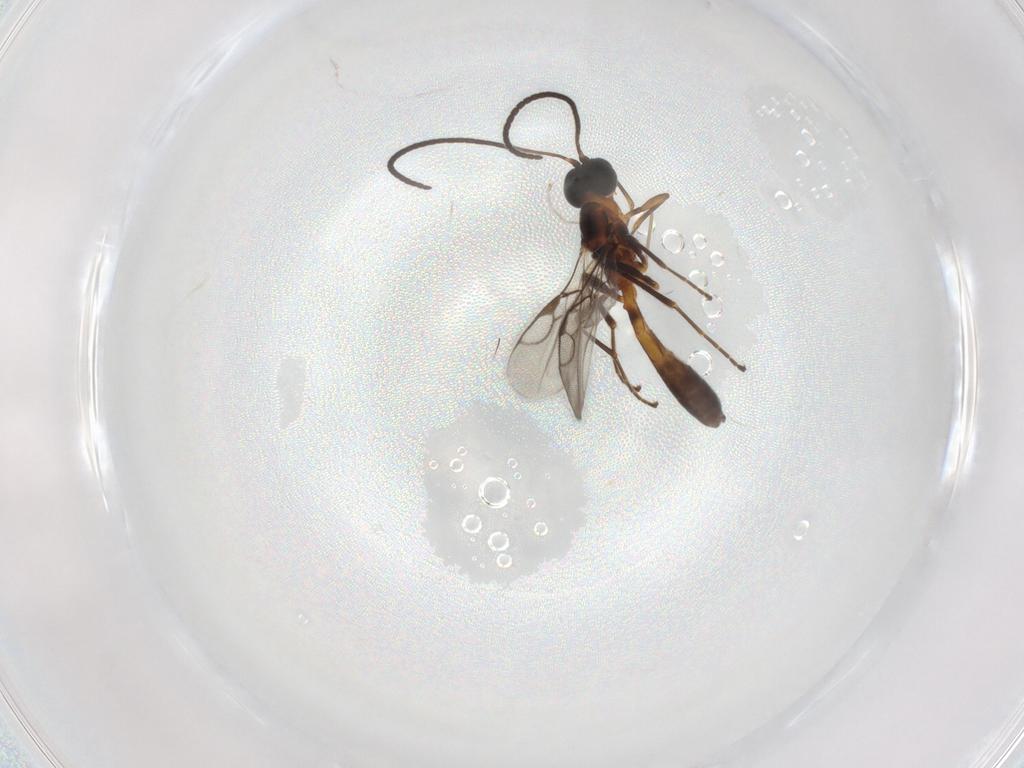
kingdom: Animalia
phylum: Arthropoda
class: Insecta
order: Hymenoptera
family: Braconidae
